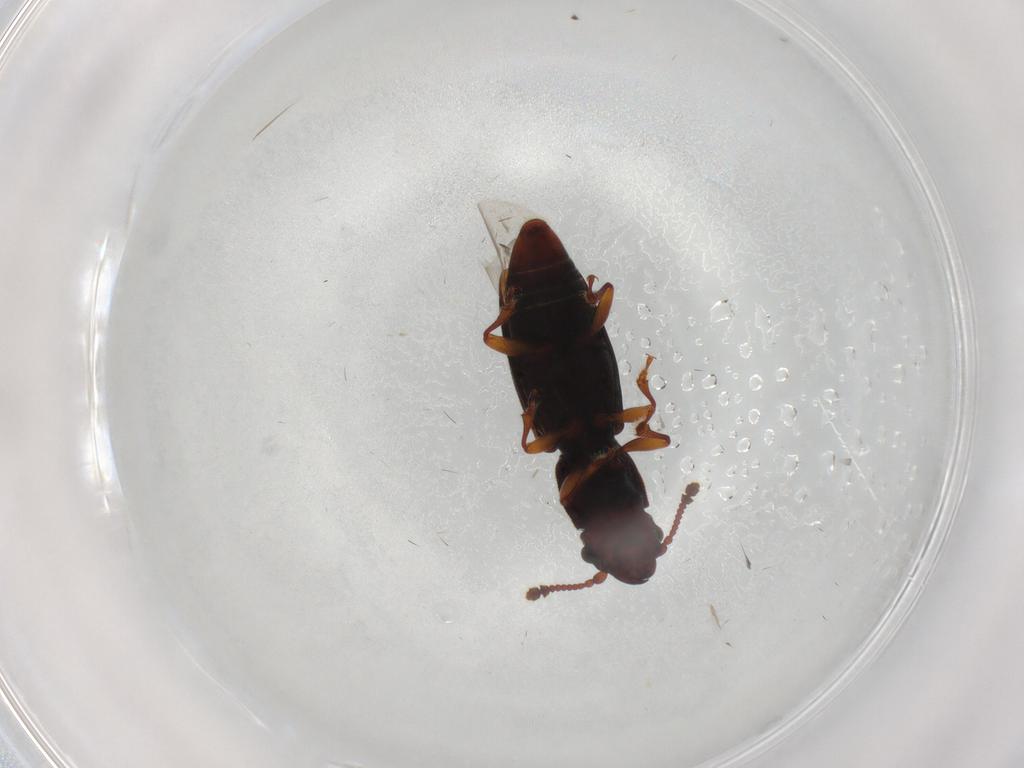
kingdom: Animalia
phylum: Arthropoda
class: Insecta
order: Coleoptera
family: Monotomidae
